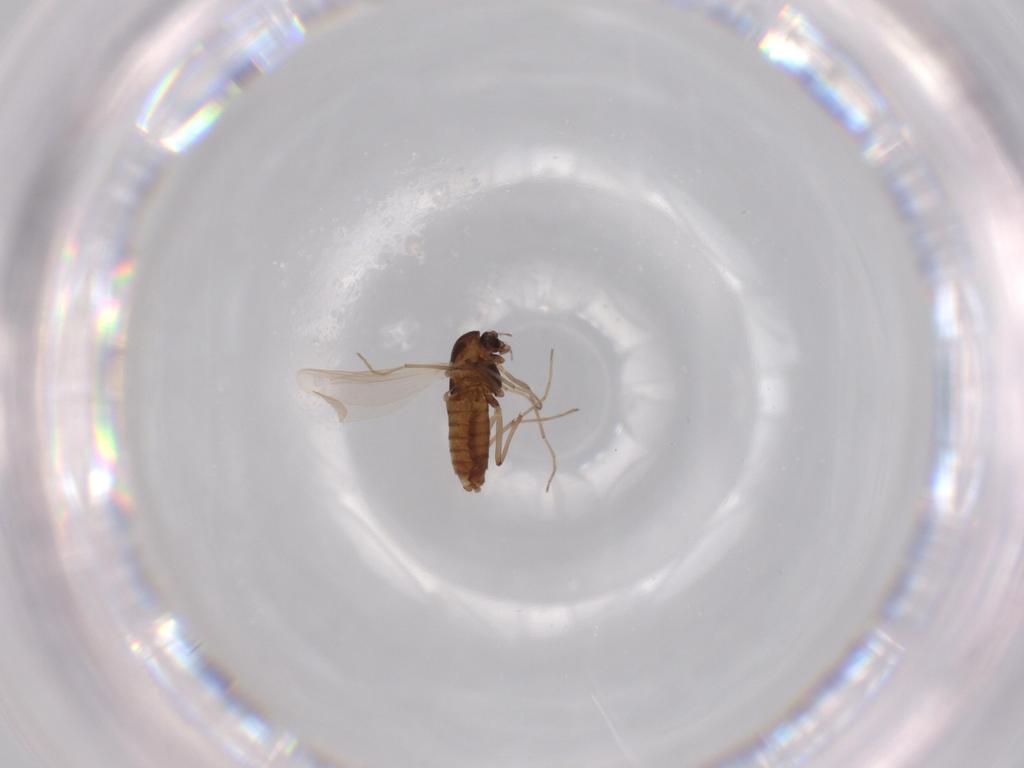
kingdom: Animalia
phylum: Arthropoda
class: Insecta
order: Diptera
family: Chironomidae
